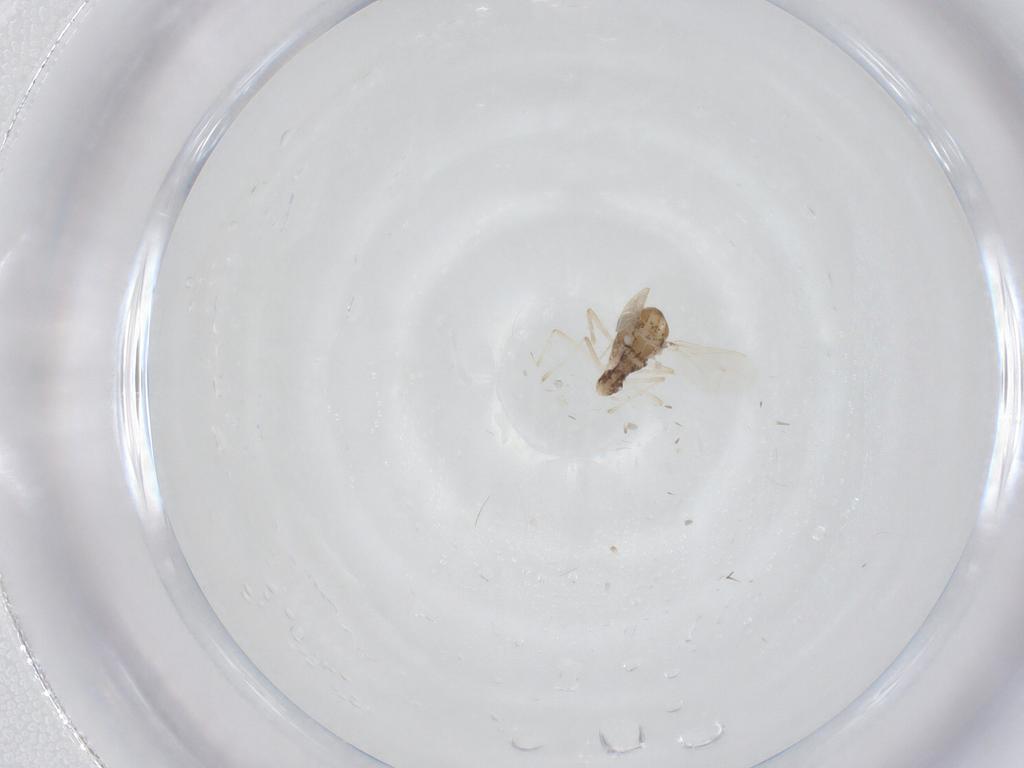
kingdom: Animalia
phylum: Arthropoda
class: Insecta
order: Diptera
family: Chironomidae
